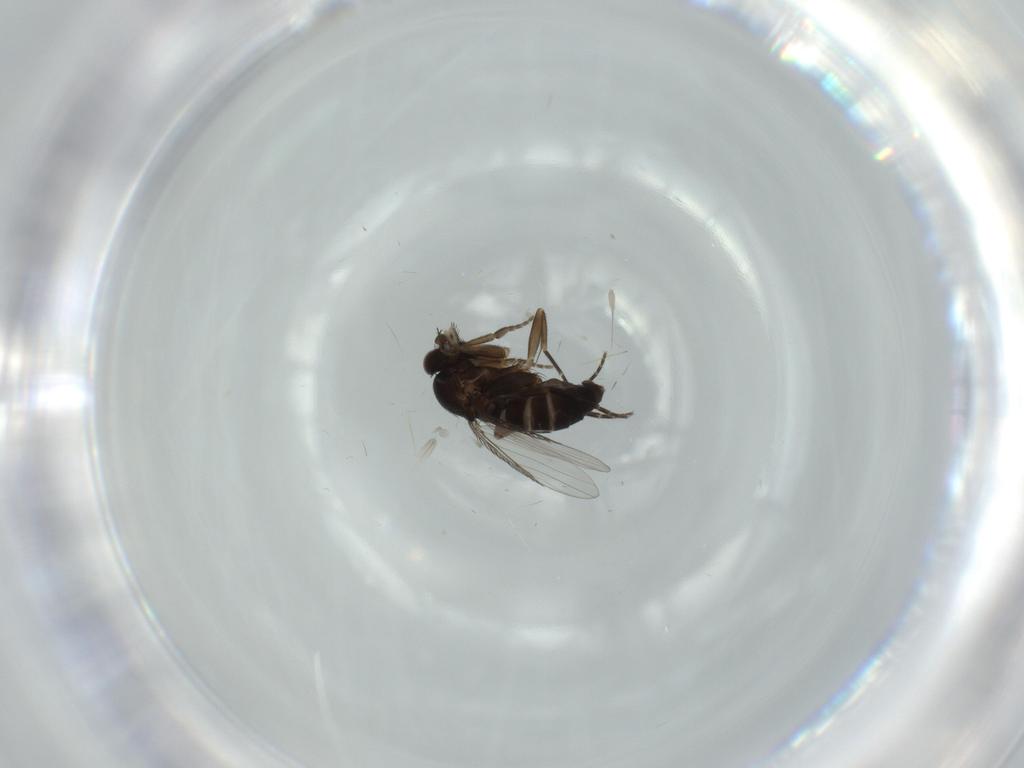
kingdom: Animalia
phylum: Arthropoda
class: Insecta
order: Diptera
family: Phoridae
